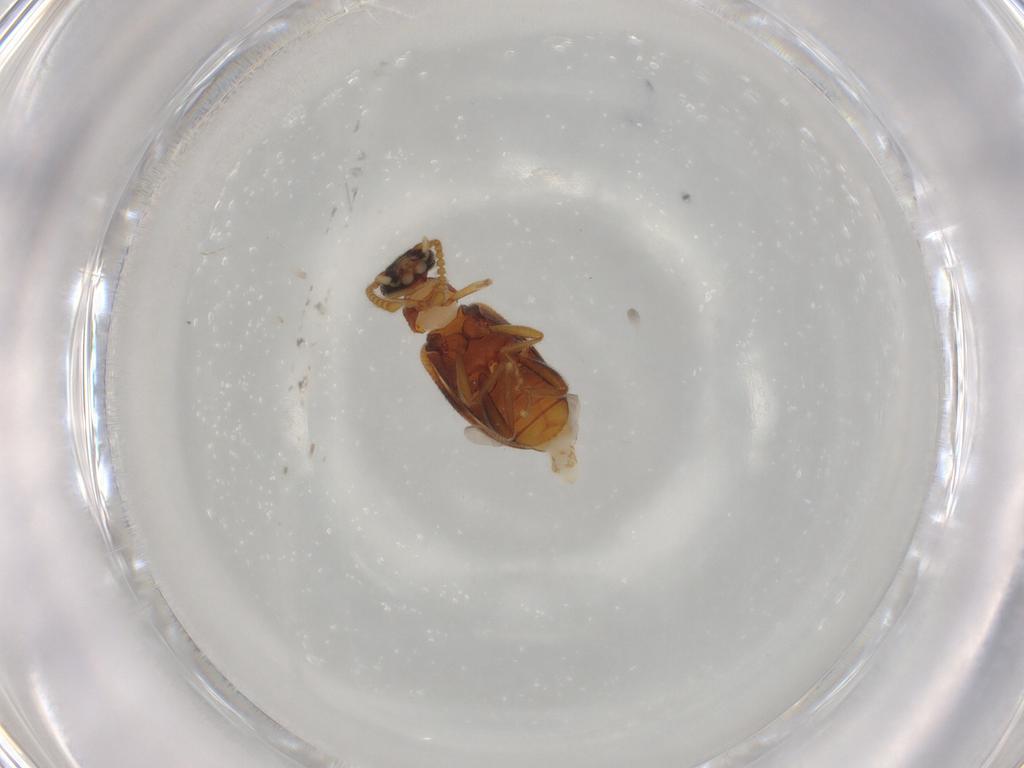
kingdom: Animalia
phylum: Arthropoda
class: Insecta
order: Coleoptera
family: Aderidae
